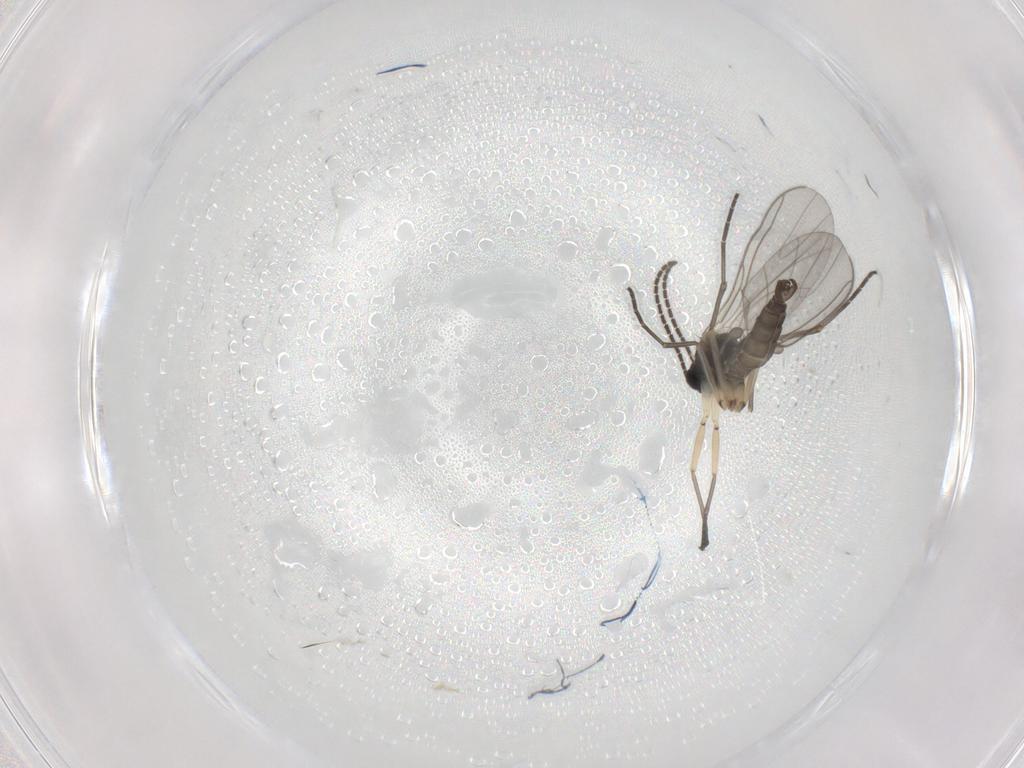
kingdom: Animalia
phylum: Arthropoda
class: Insecta
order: Diptera
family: Sciaridae
